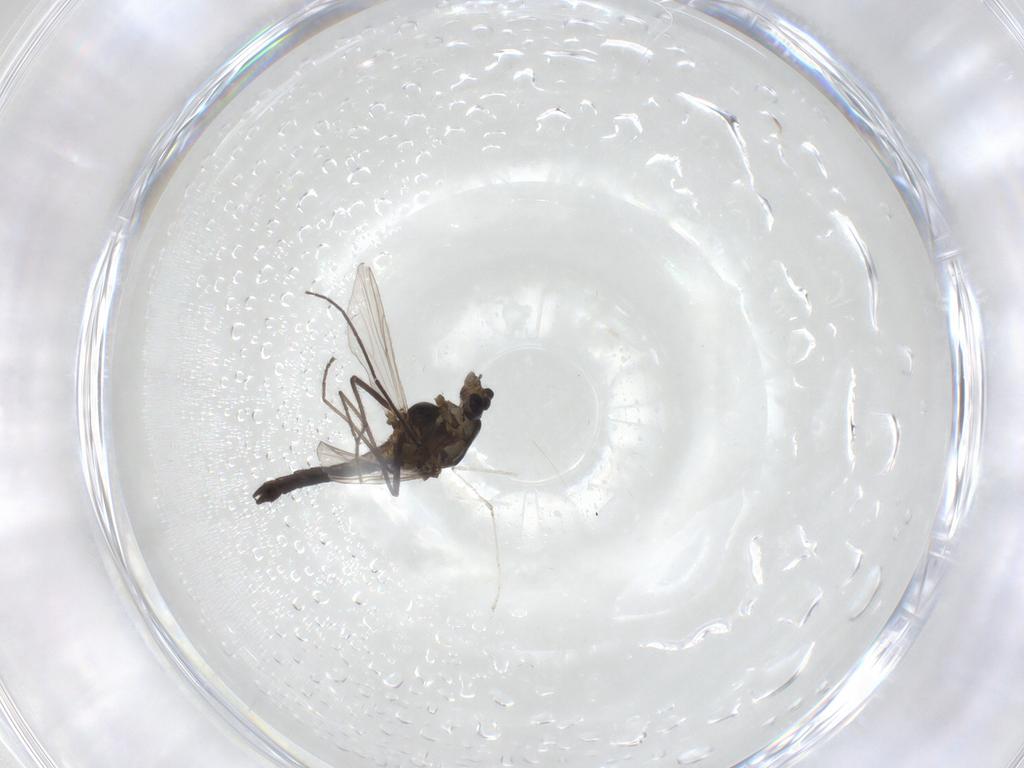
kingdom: Animalia
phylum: Arthropoda
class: Insecta
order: Diptera
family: Chironomidae
